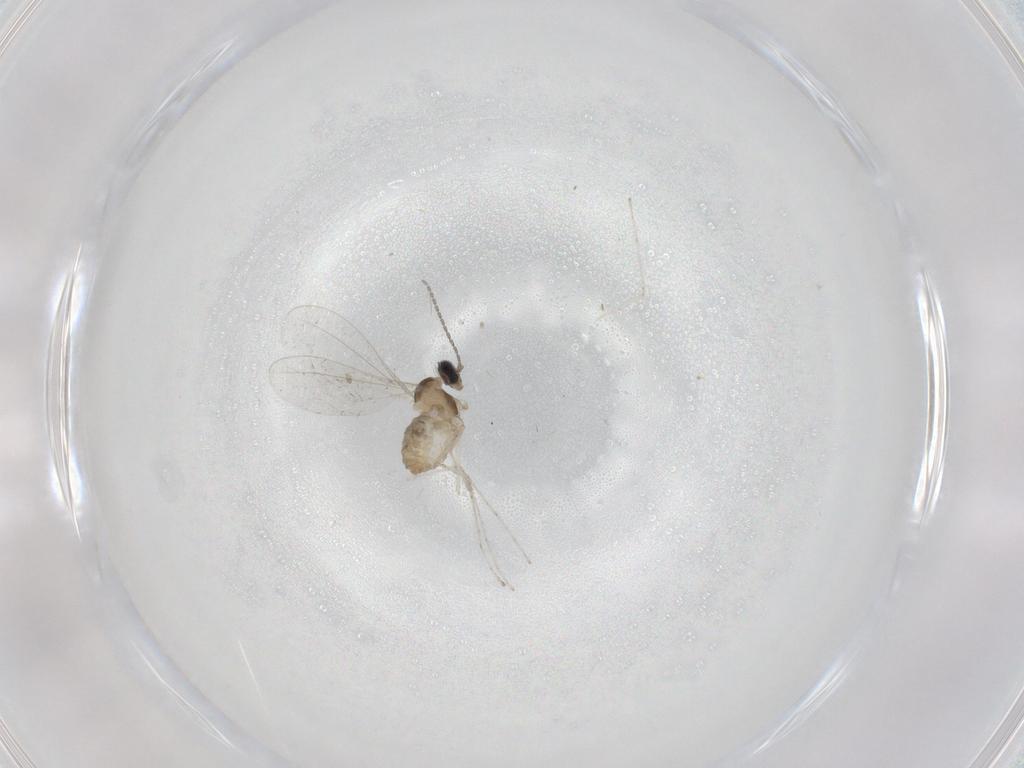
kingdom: Animalia
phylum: Arthropoda
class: Insecta
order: Diptera
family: Cecidomyiidae
